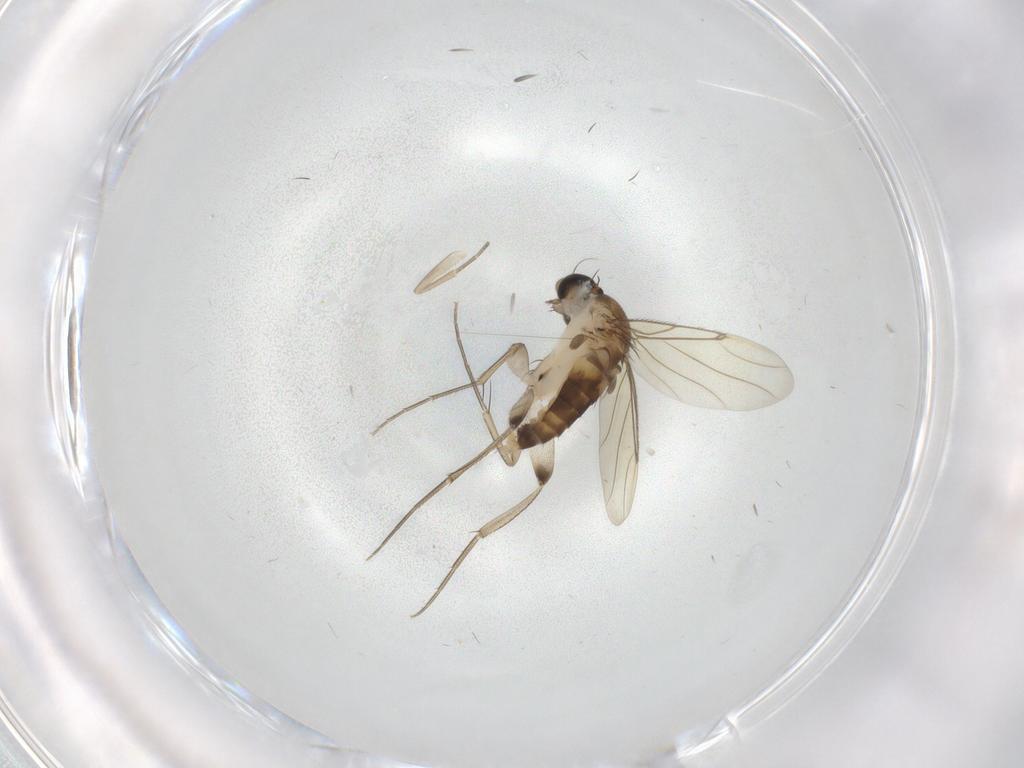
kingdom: Animalia
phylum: Arthropoda
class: Insecta
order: Diptera
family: Phoridae
